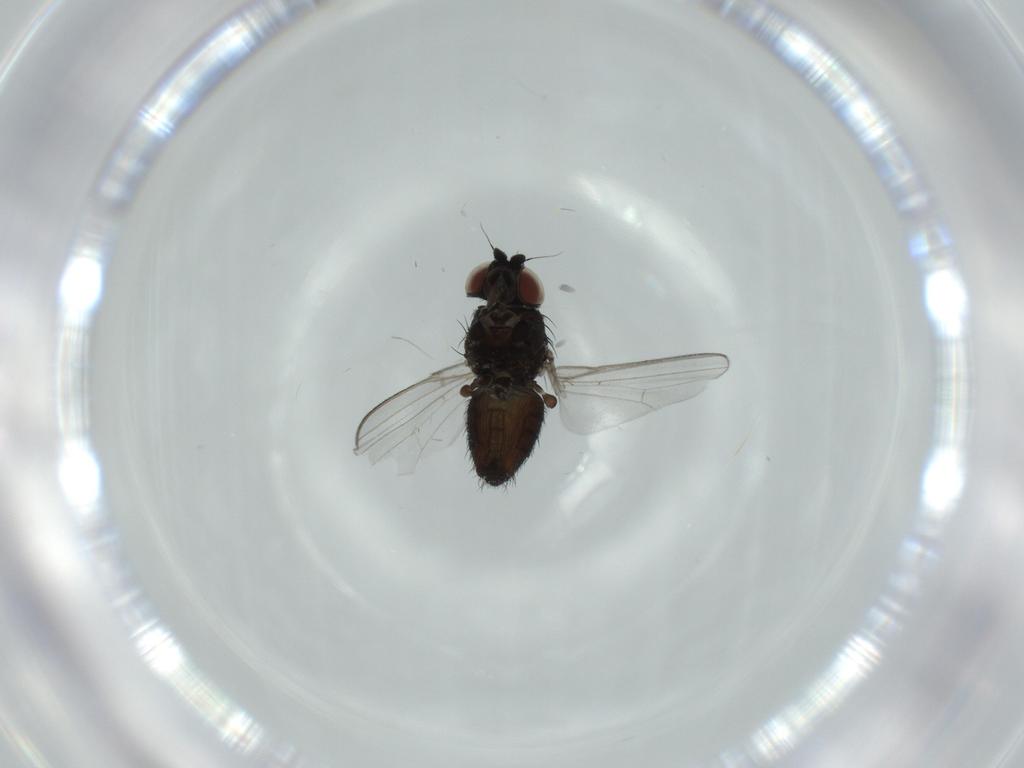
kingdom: Animalia
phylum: Arthropoda
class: Insecta
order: Diptera
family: Milichiidae
